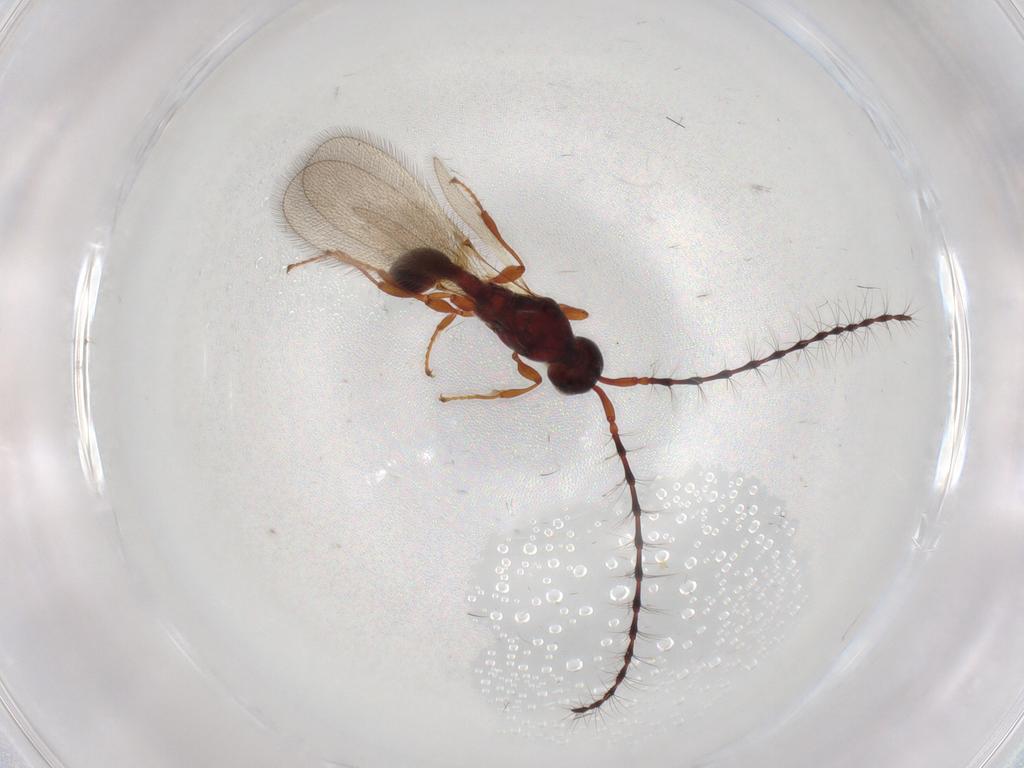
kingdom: Animalia
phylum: Arthropoda
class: Insecta
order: Hymenoptera
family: Diapriidae
